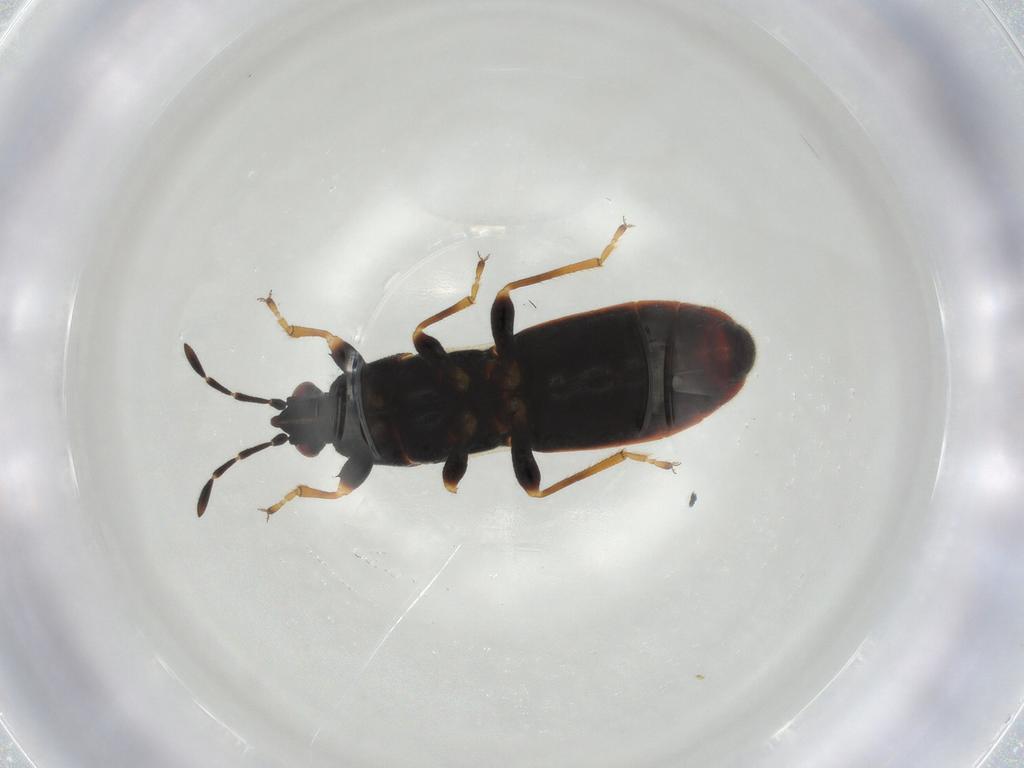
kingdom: Animalia
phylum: Arthropoda
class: Insecta
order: Hemiptera
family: Blissidae
